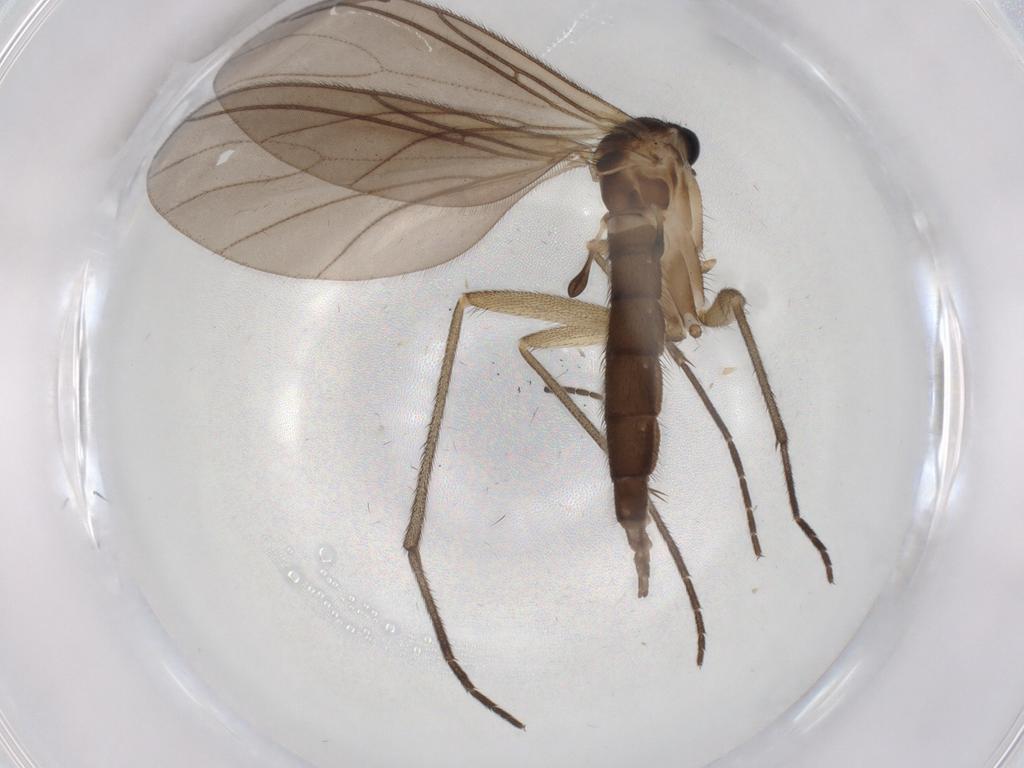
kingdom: Animalia
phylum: Arthropoda
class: Insecta
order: Diptera
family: Sciaridae
